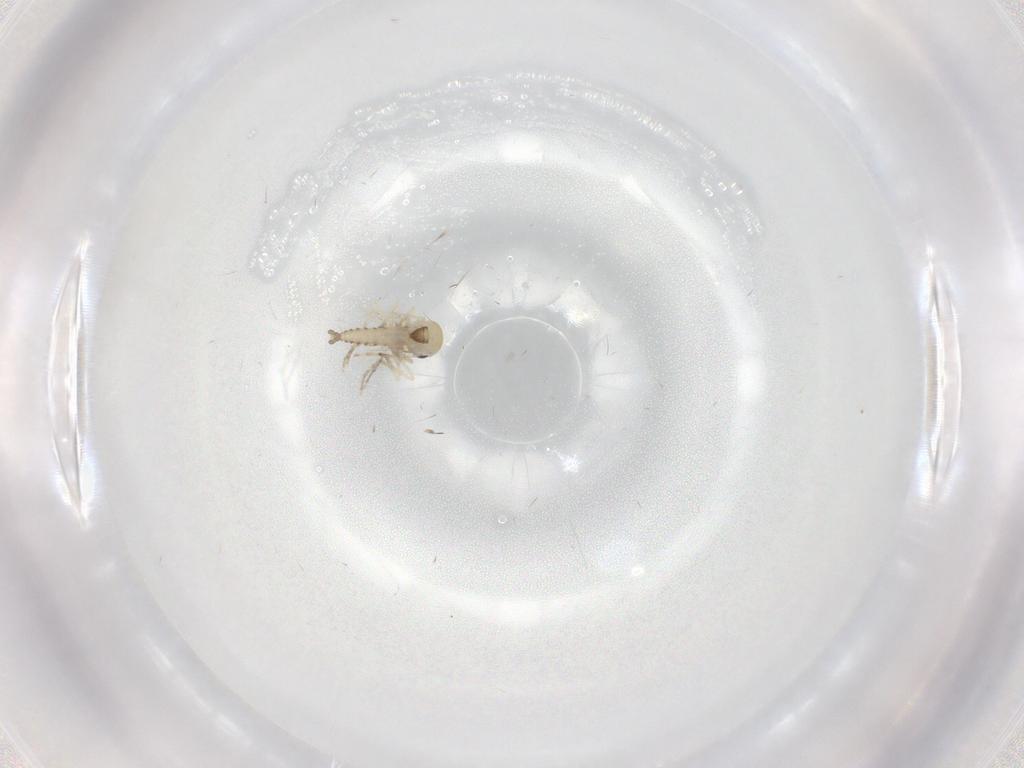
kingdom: Animalia
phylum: Arthropoda
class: Insecta
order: Diptera
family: Ceratopogonidae
